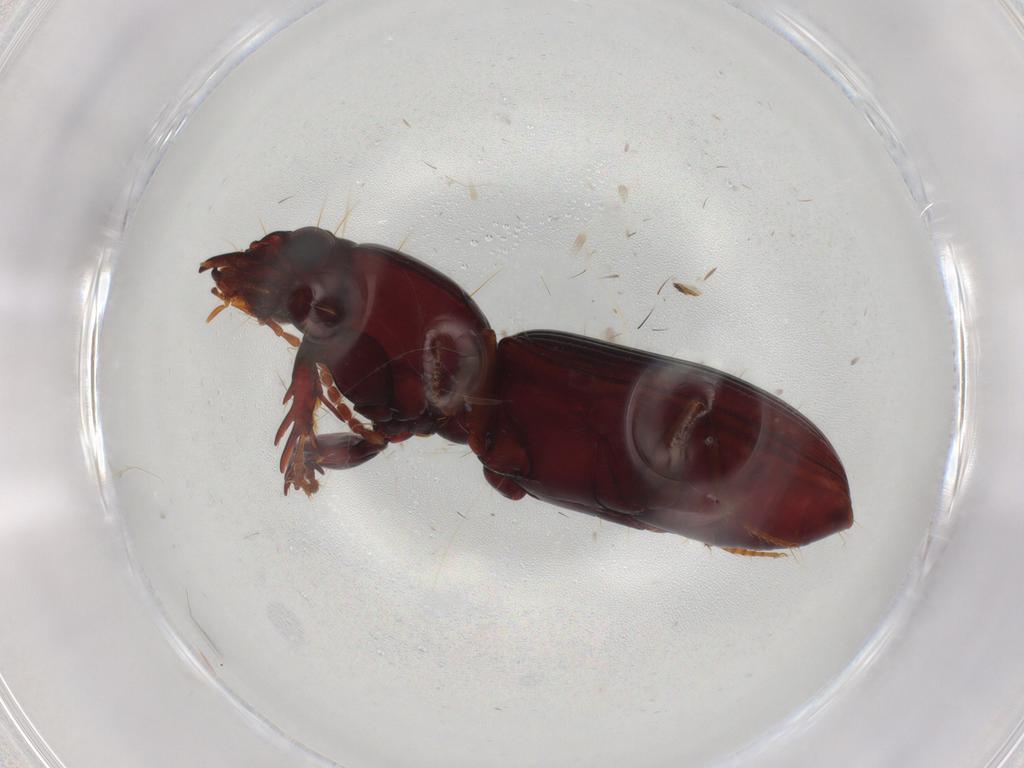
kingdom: Animalia
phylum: Arthropoda
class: Insecta
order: Coleoptera
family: Carabidae
